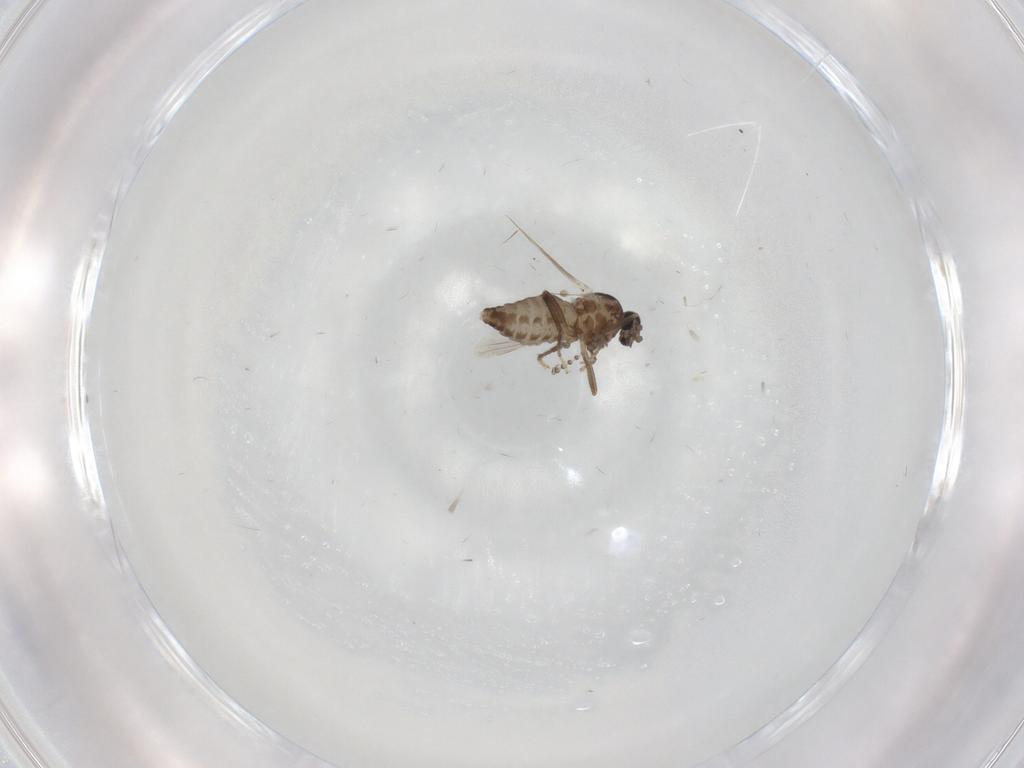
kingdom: Animalia
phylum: Arthropoda
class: Insecta
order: Diptera
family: Ceratopogonidae
